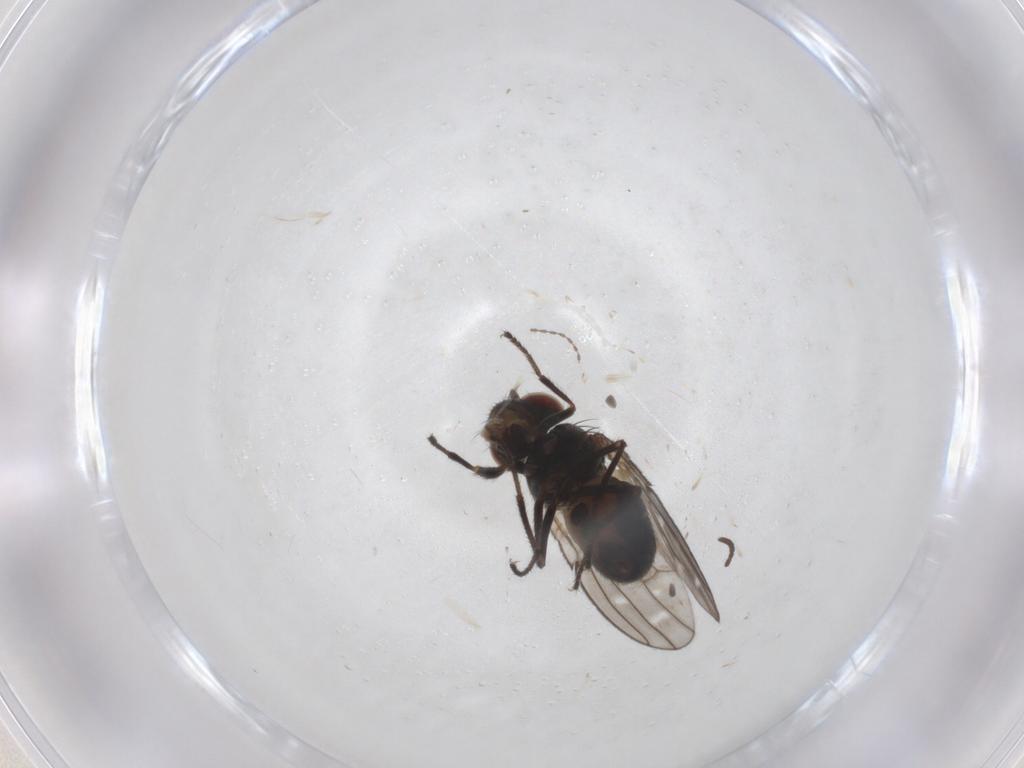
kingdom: Animalia
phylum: Arthropoda
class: Insecta
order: Diptera
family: Ephydridae
